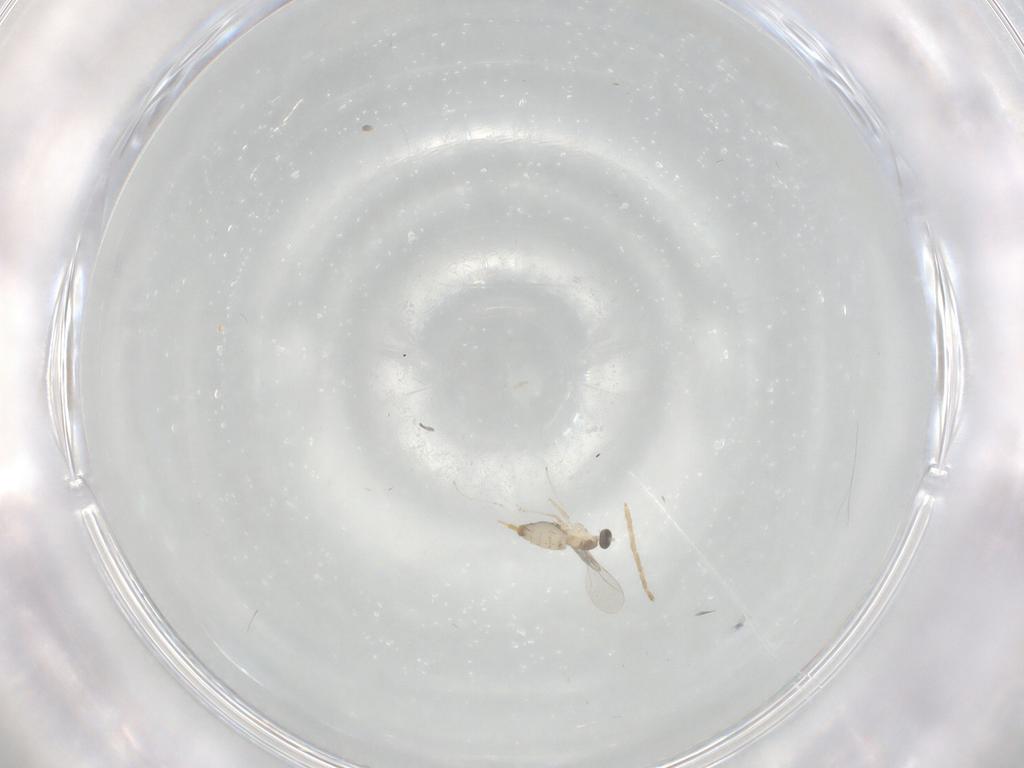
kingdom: Animalia
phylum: Arthropoda
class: Insecta
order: Diptera
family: Cecidomyiidae
